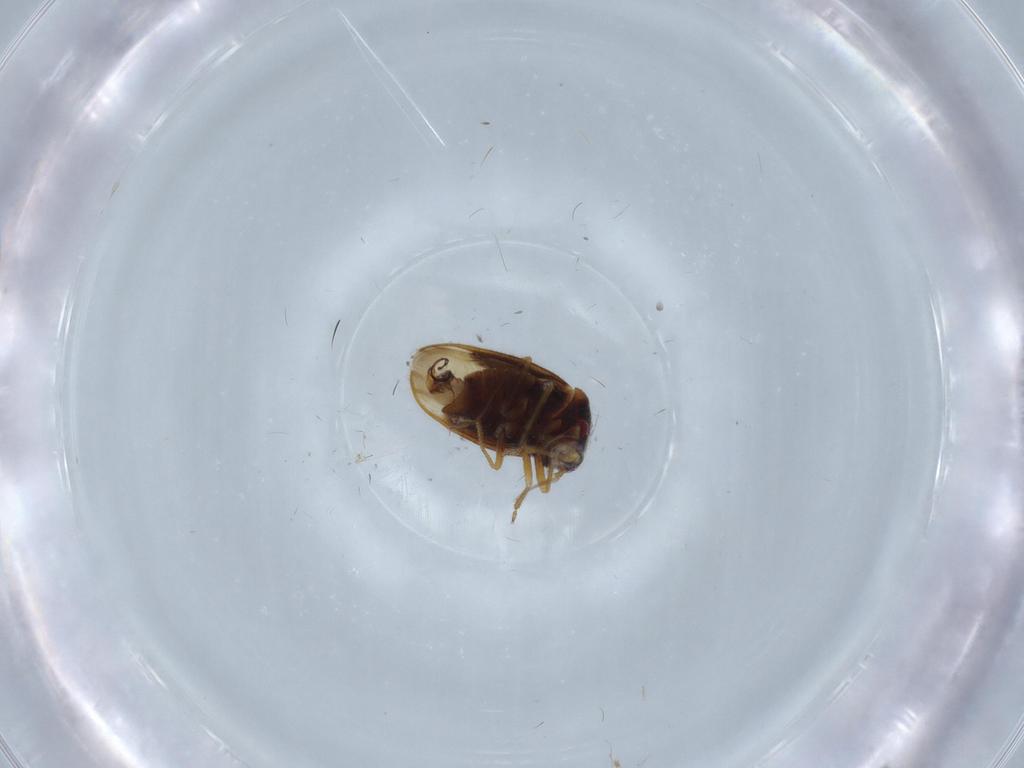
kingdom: Animalia
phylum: Arthropoda
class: Insecta
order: Hemiptera
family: Schizopteridae
